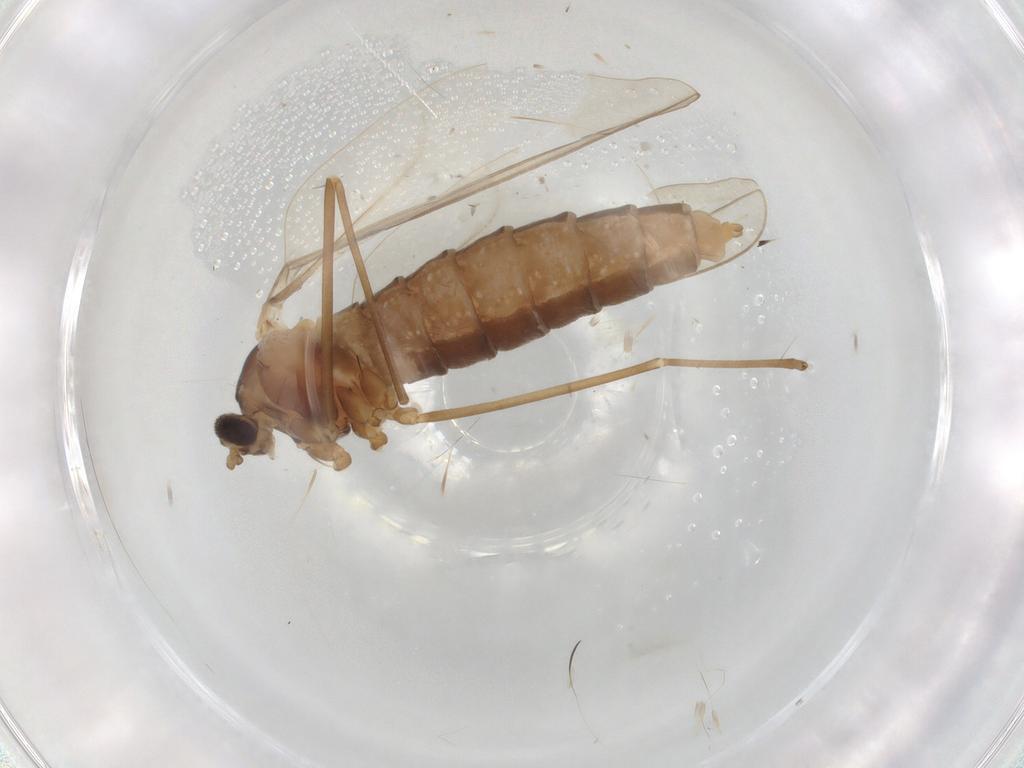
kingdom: Animalia
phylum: Arthropoda
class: Insecta
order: Diptera
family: Cecidomyiidae
